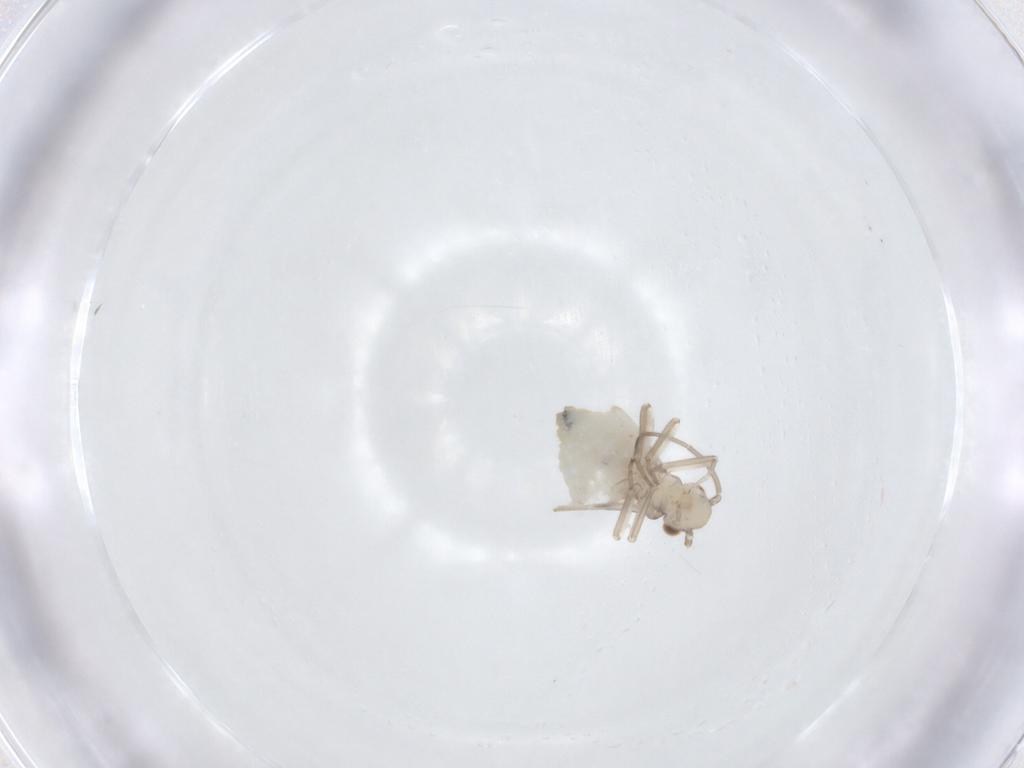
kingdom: Animalia
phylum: Arthropoda
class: Insecta
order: Psocodea
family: Caeciliusidae
